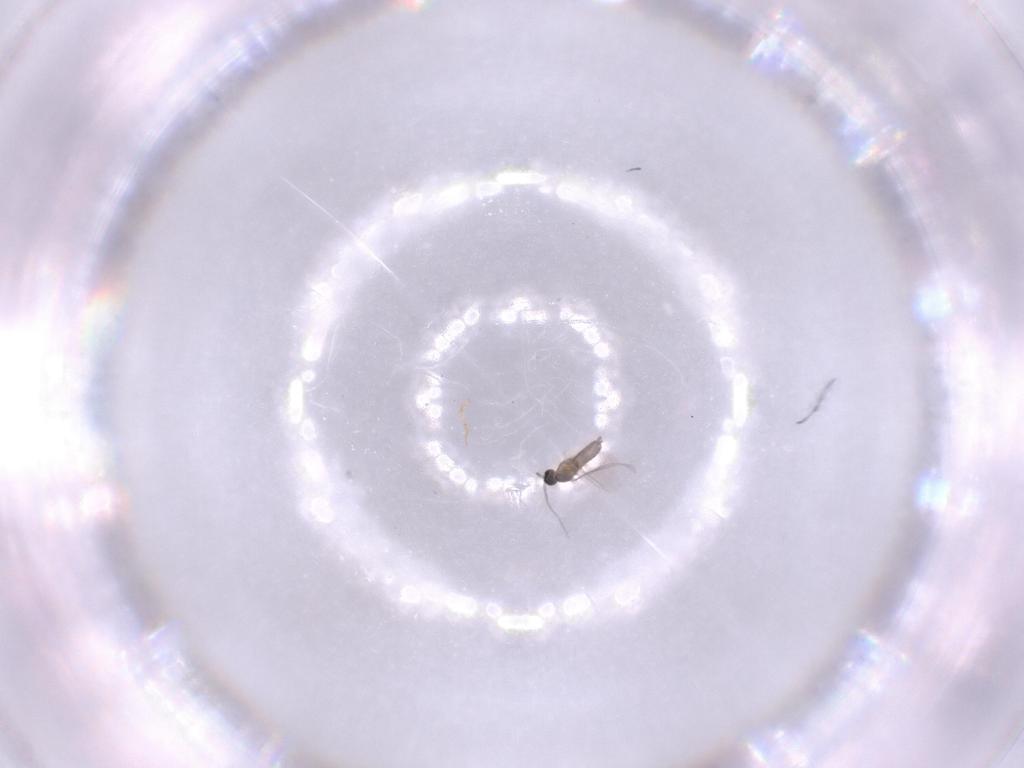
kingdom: Animalia
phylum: Arthropoda
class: Insecta
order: Diptera
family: Cecidomyiidae
